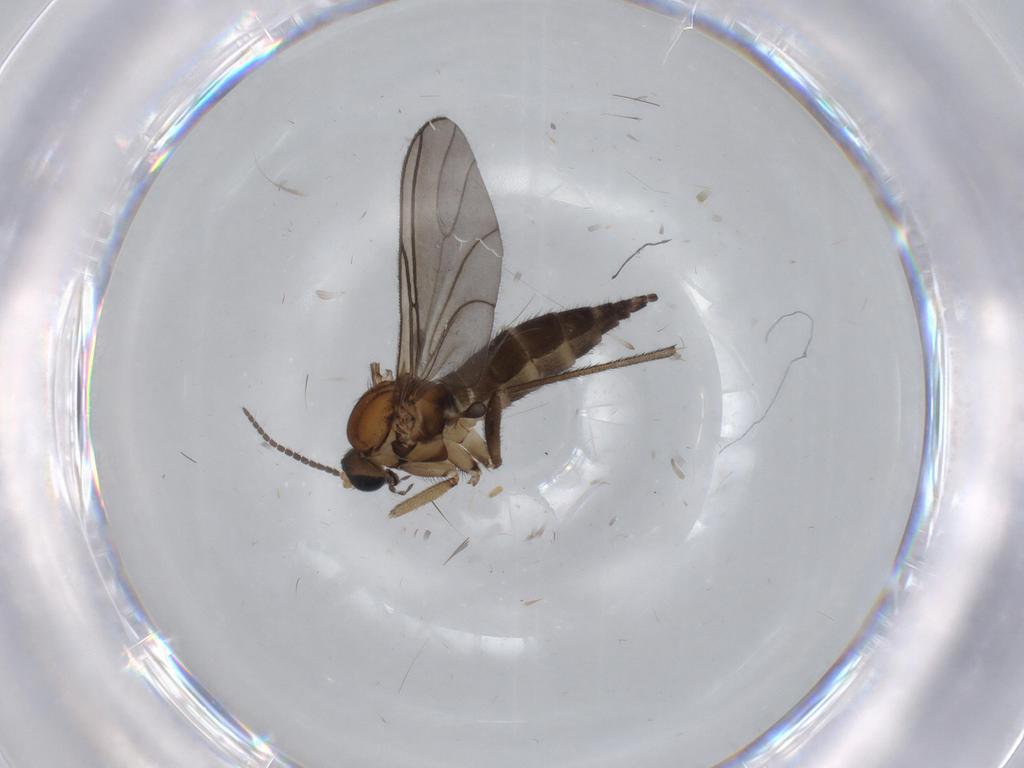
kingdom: Animalia
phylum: Arthropoda
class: Insecta
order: Diptera
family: Sciaridae
